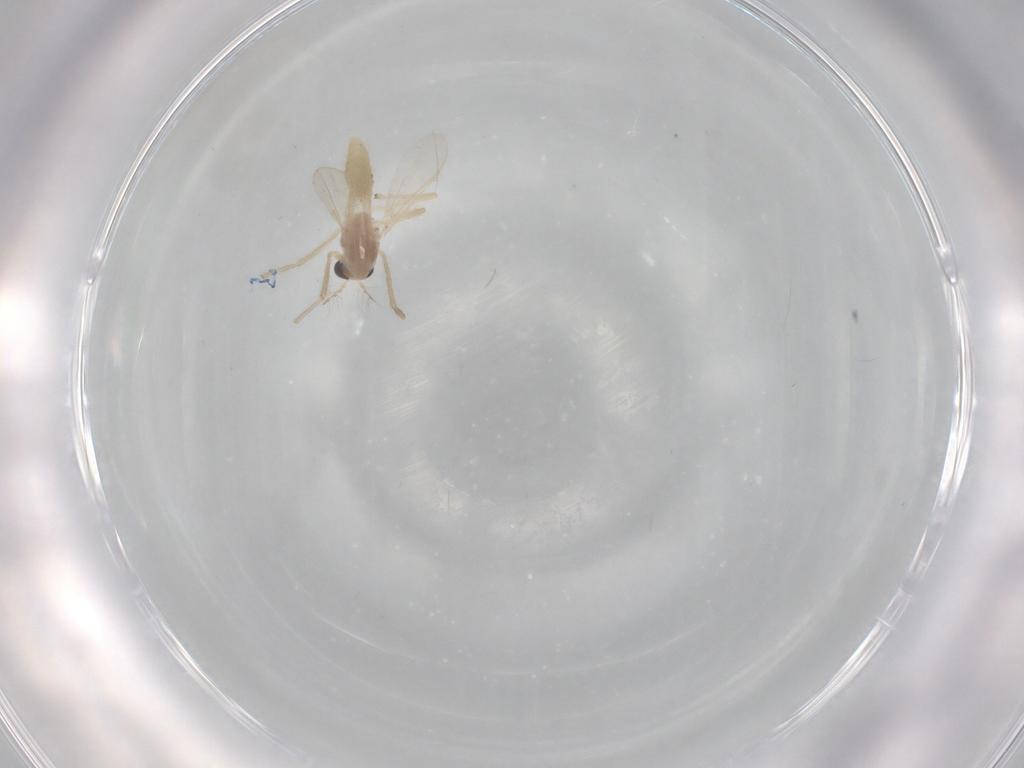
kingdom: Animalia
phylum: Arthropoda
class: Insecta
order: Diptera
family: Chironomidae
